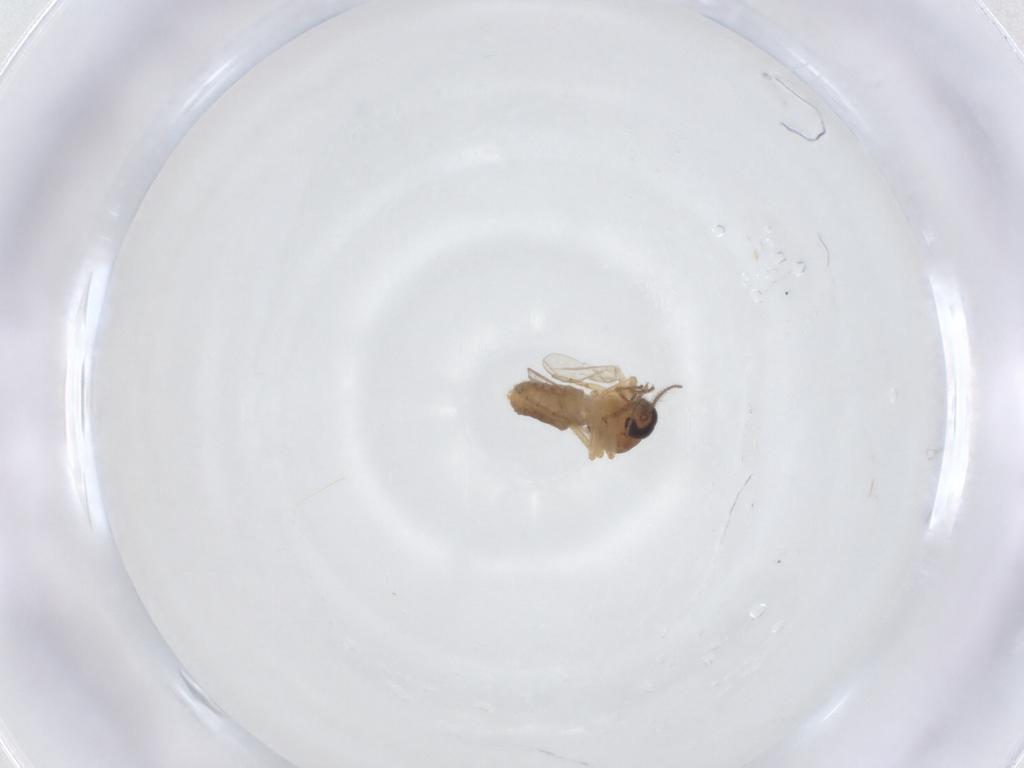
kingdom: Animalia
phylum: Arthropoda
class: Insecta
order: Diptera
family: Ceratopogonidae
